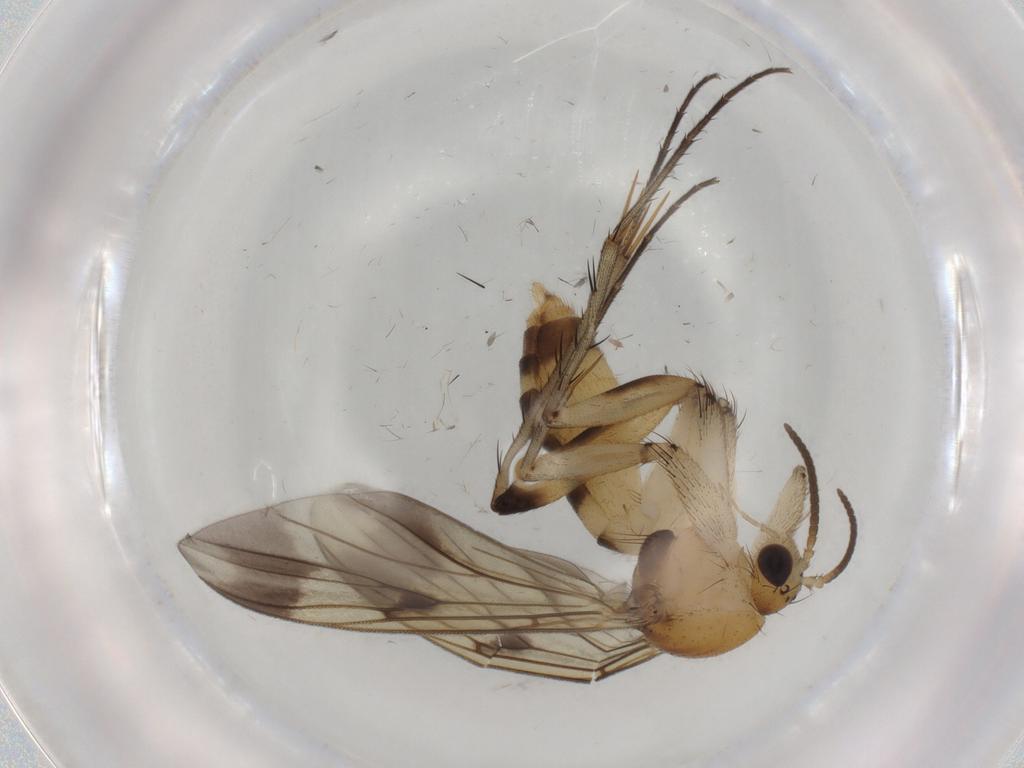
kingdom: Animalia
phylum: Arthropoda
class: Insecta
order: Diptera
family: Mycetophilidae
